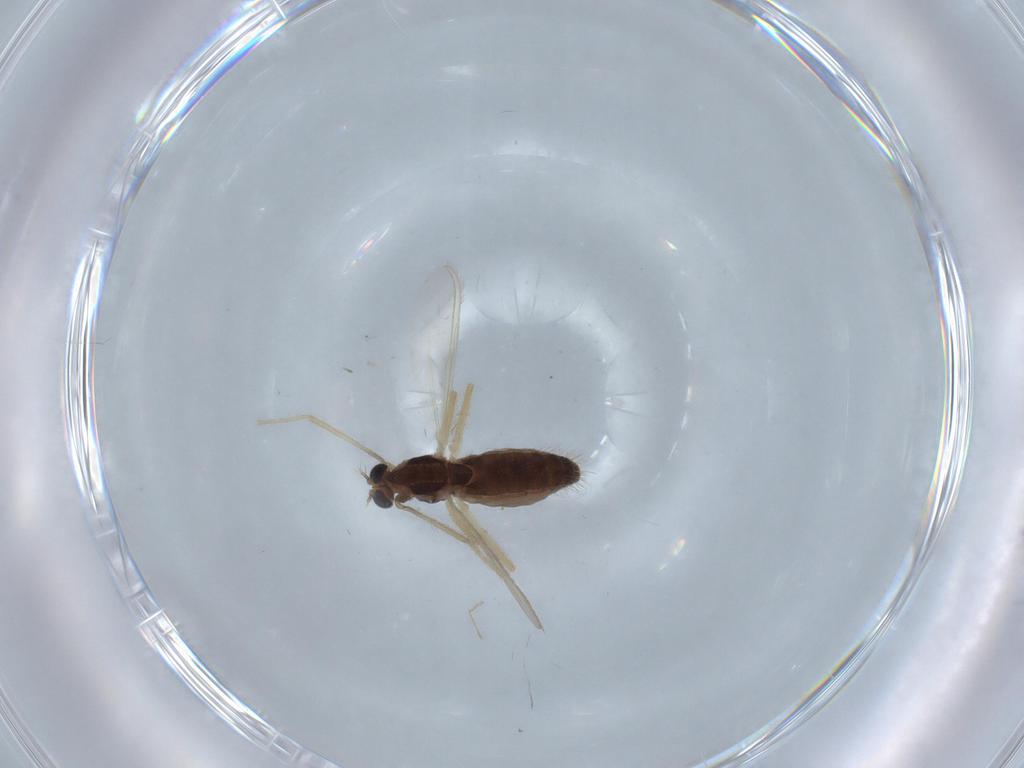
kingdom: Animalia
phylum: Arthropoda
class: Insecta
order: Diptera
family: Chironomidae
